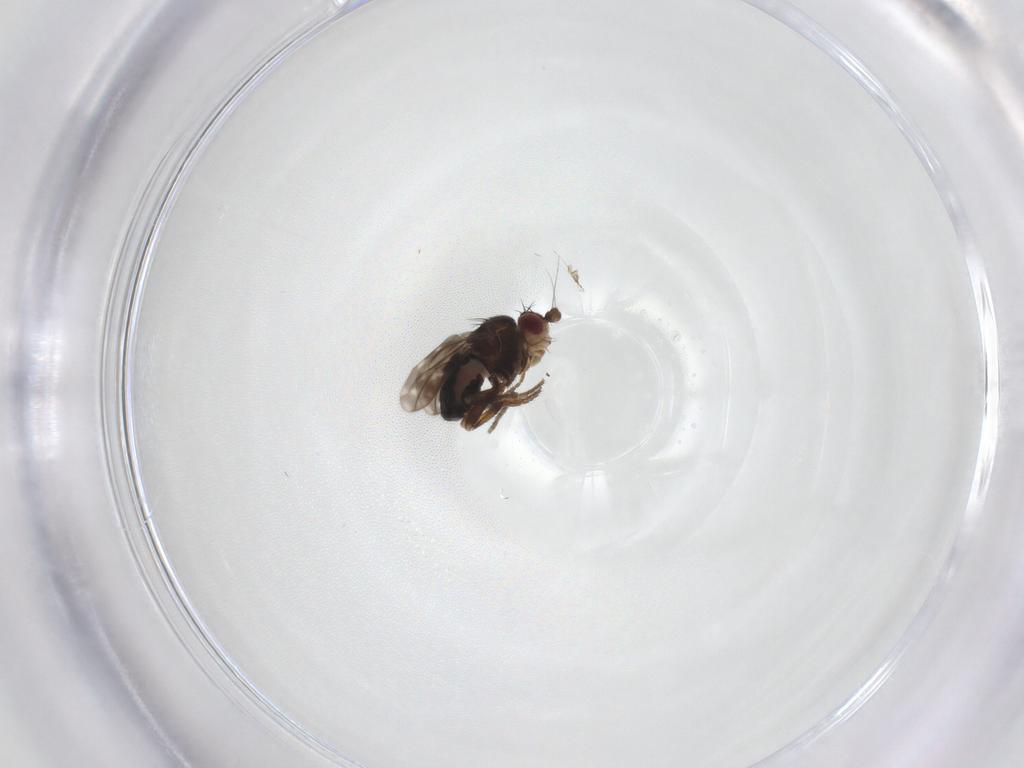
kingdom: Animalia
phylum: Arthropoda
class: Insecta
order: Diptera
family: Sphaeroceridae
